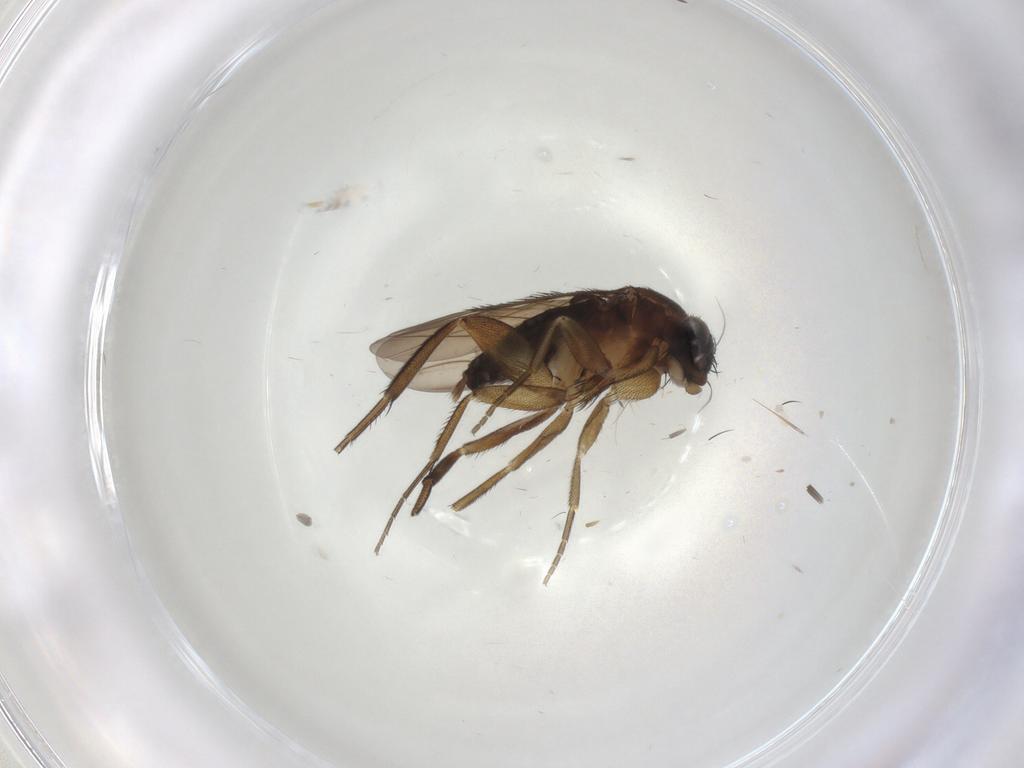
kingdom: Animalia
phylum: Arthropoda
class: Insecta
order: Diptera
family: Phoridae
